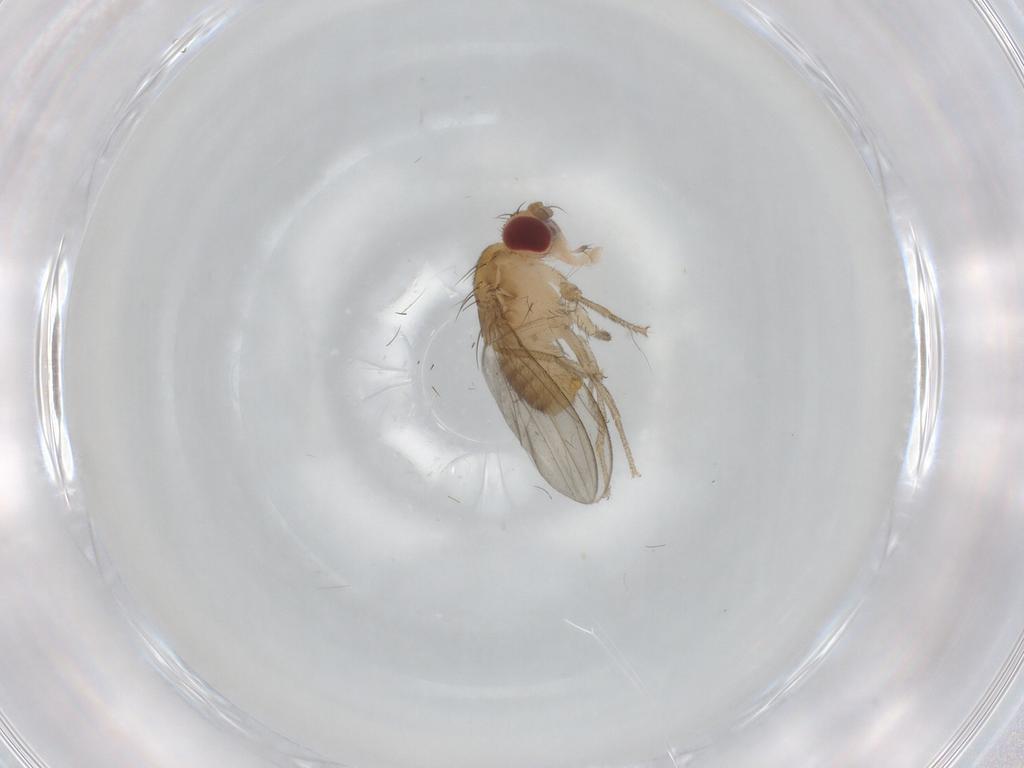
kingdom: Animalia
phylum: Arthropoda
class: Insecta
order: Diptera
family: Drosophilidae
